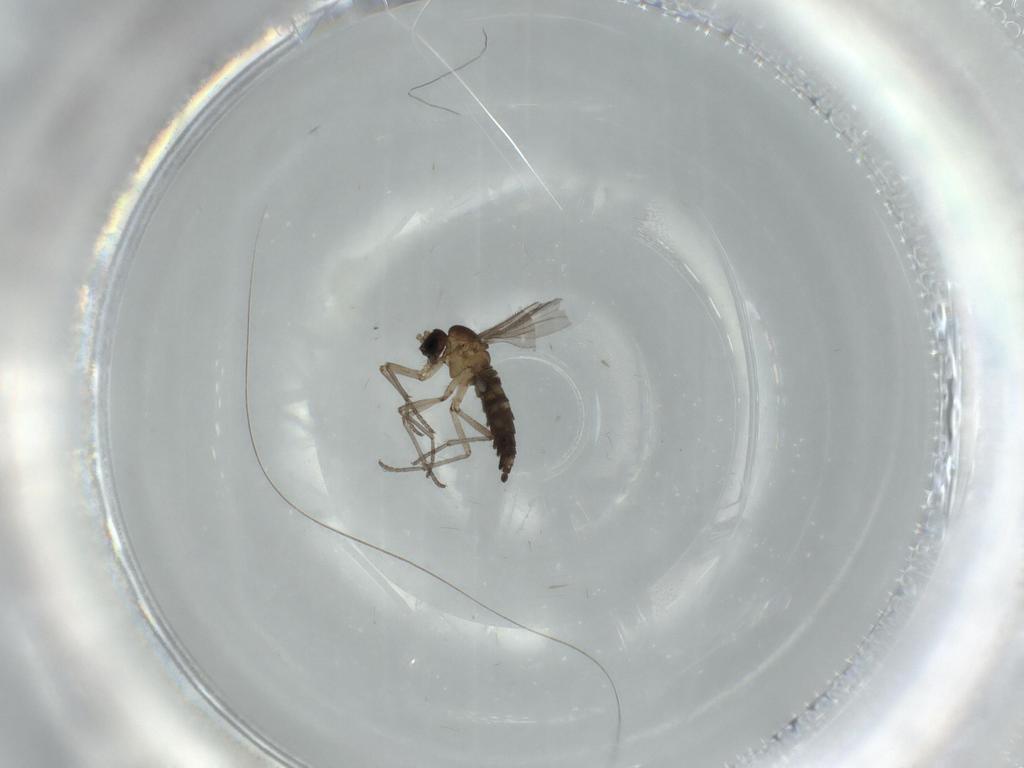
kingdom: Animalia
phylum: Arthropoda
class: Insecta
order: Diptera
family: Sciaridae
